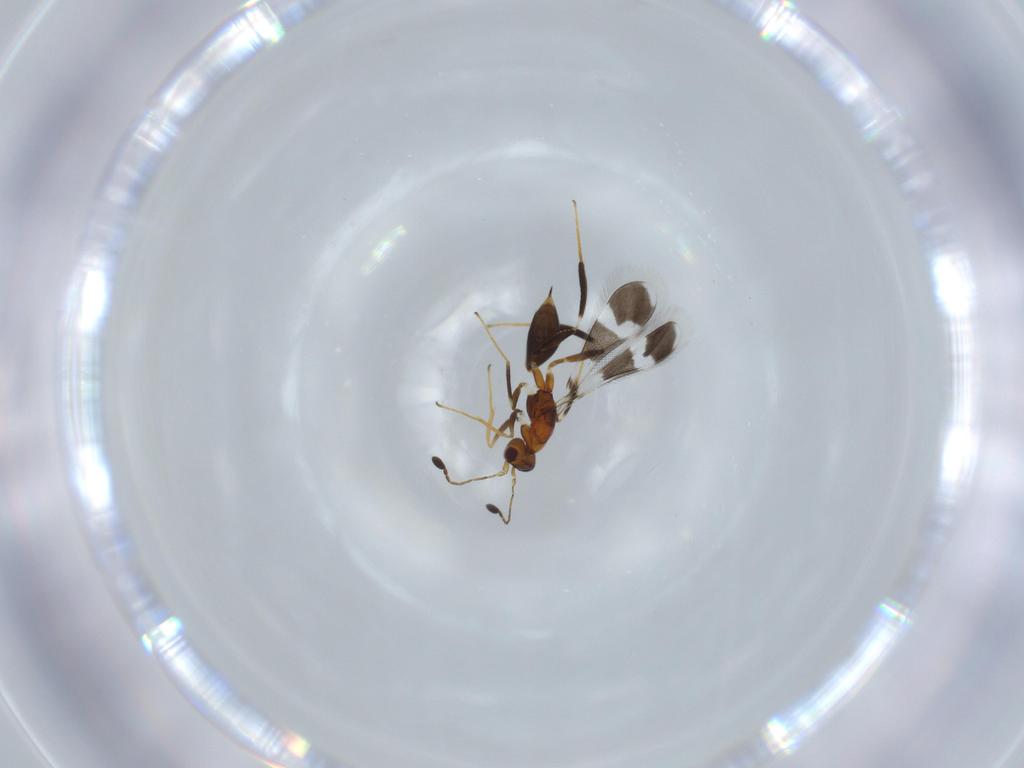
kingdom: Animalia
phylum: Arthropoda
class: Insecta
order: Hymenoptera
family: Mymaridae
